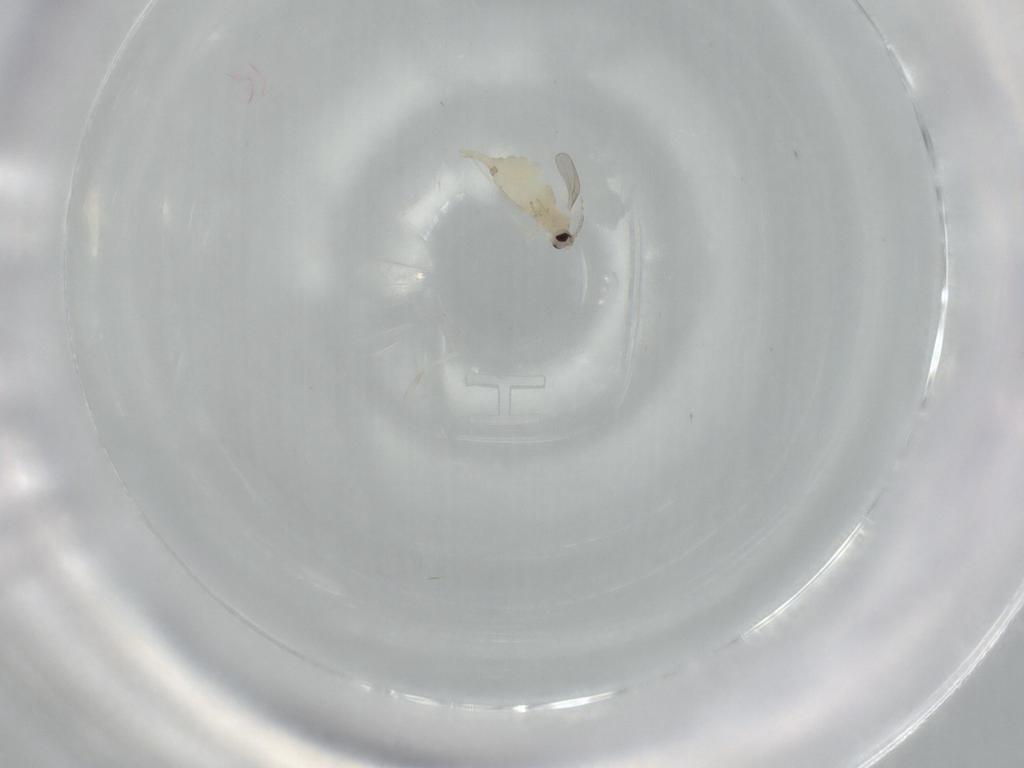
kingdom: Animalia
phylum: Arthropoda
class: Insecta
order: Diptera
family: Cecidomyiidae
